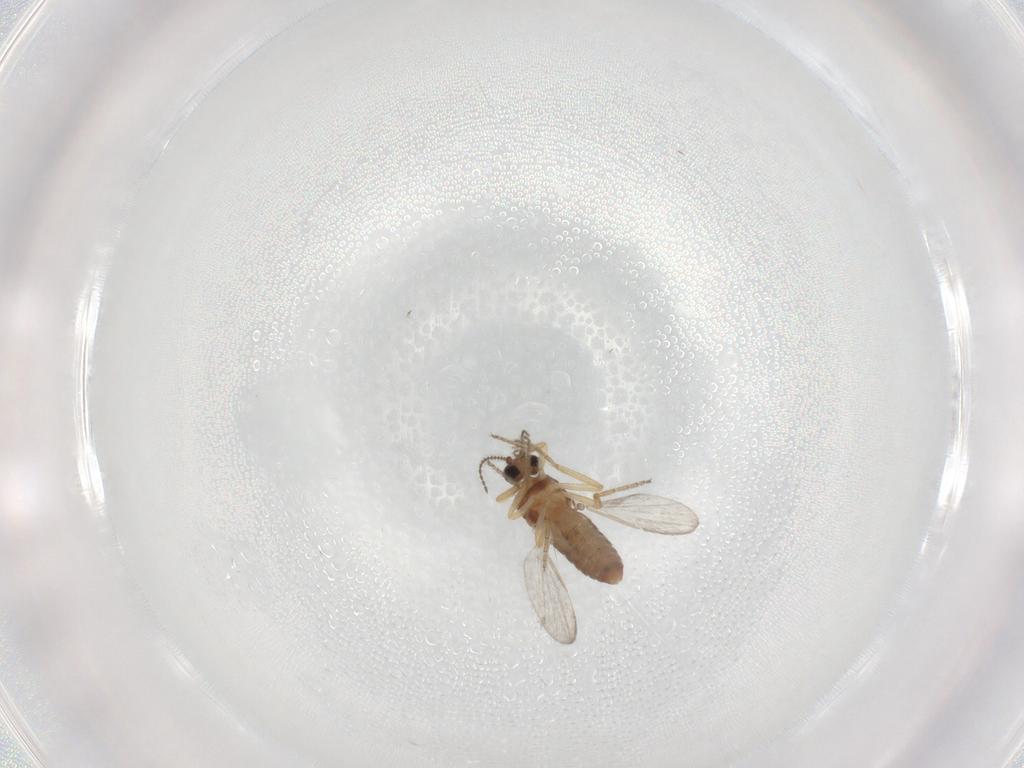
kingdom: Animalia
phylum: Arthropoda
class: Insecta
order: Diptera
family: Ceratopogonidae
